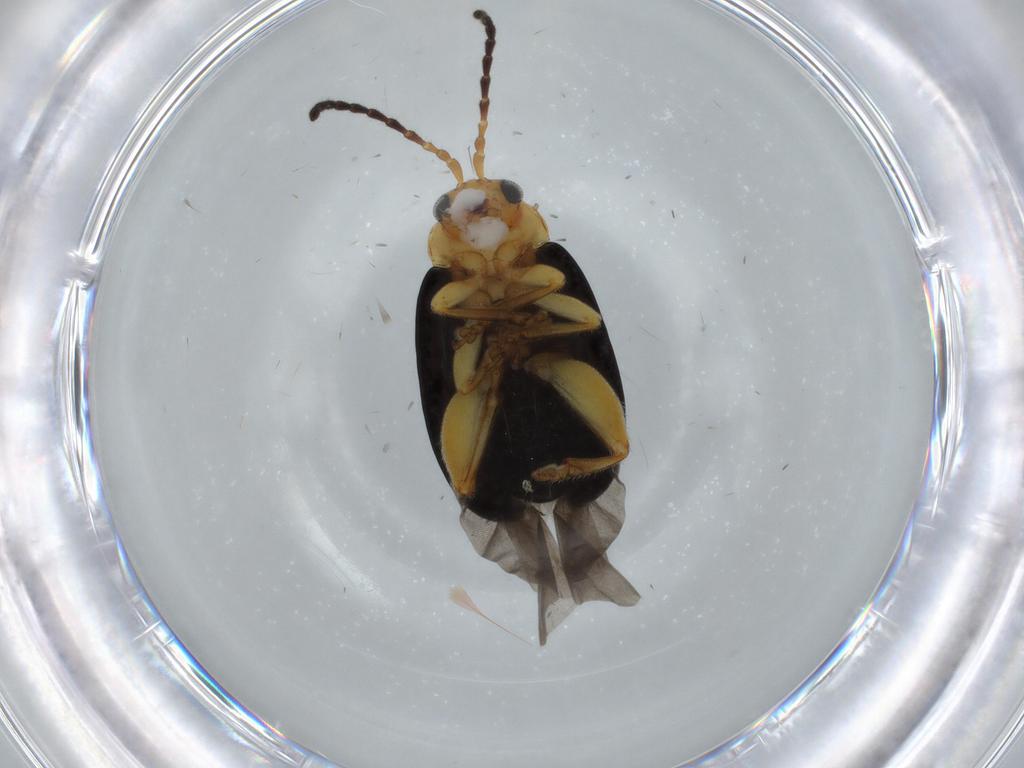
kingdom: Animalia
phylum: Arthropoda
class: Insecta
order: Coleoptera
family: Chrysomelidae
